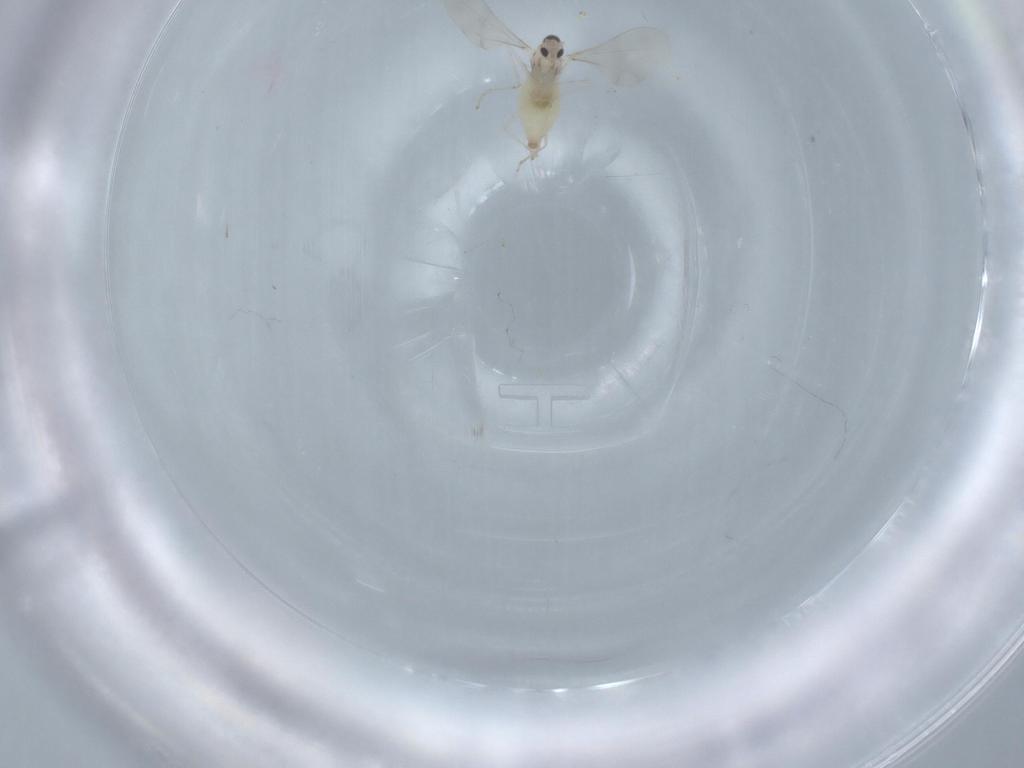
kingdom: Animalia
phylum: Arthropoda
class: Insecta
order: Diptera
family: Cecidomyiidae
